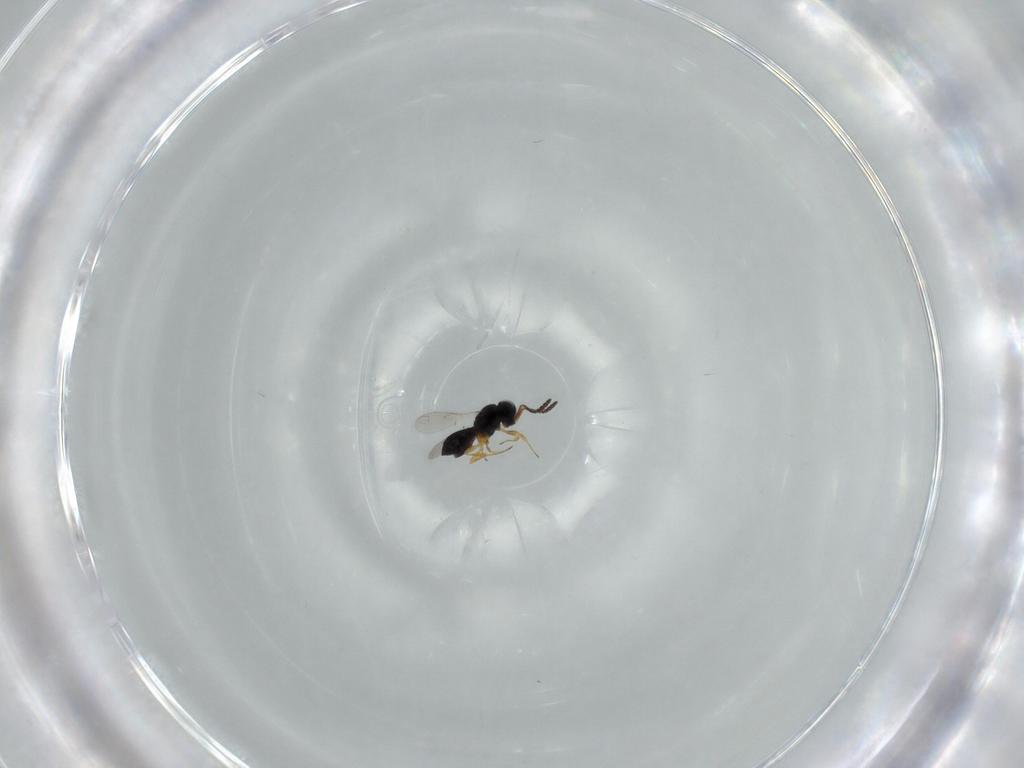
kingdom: Animalia
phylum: Arthropoda
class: Insecta
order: Hymenoptera
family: Scelionidae
